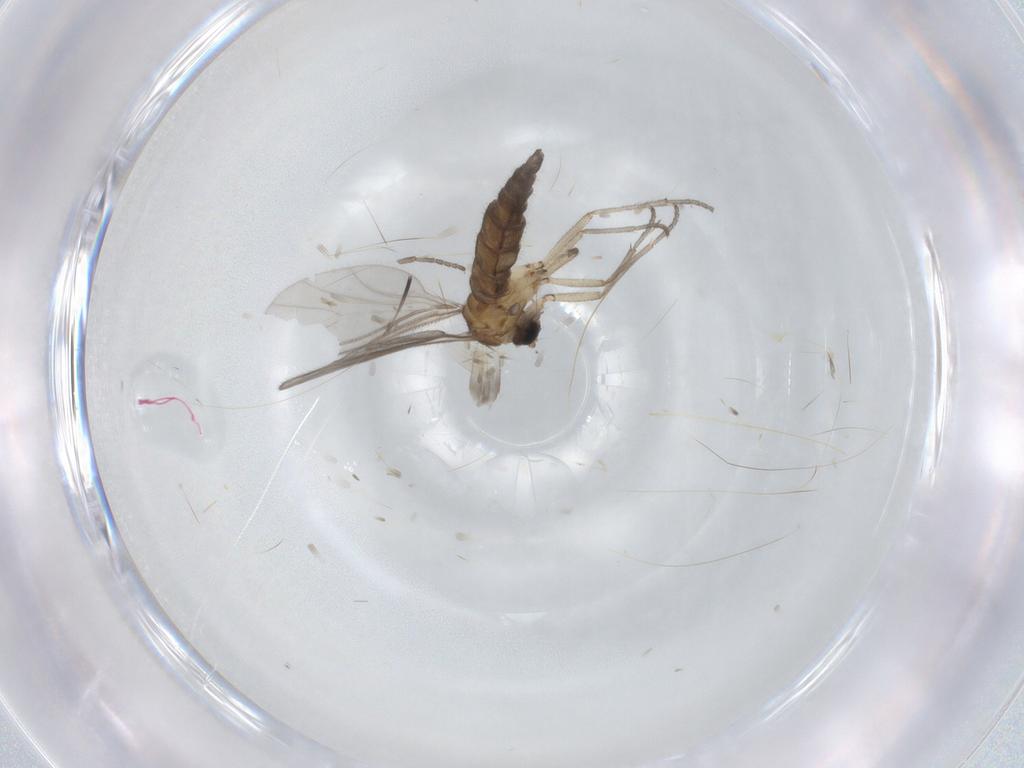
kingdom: Animalia
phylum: Arthropoda
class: Insecta
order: Diptera
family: Sciaridae
